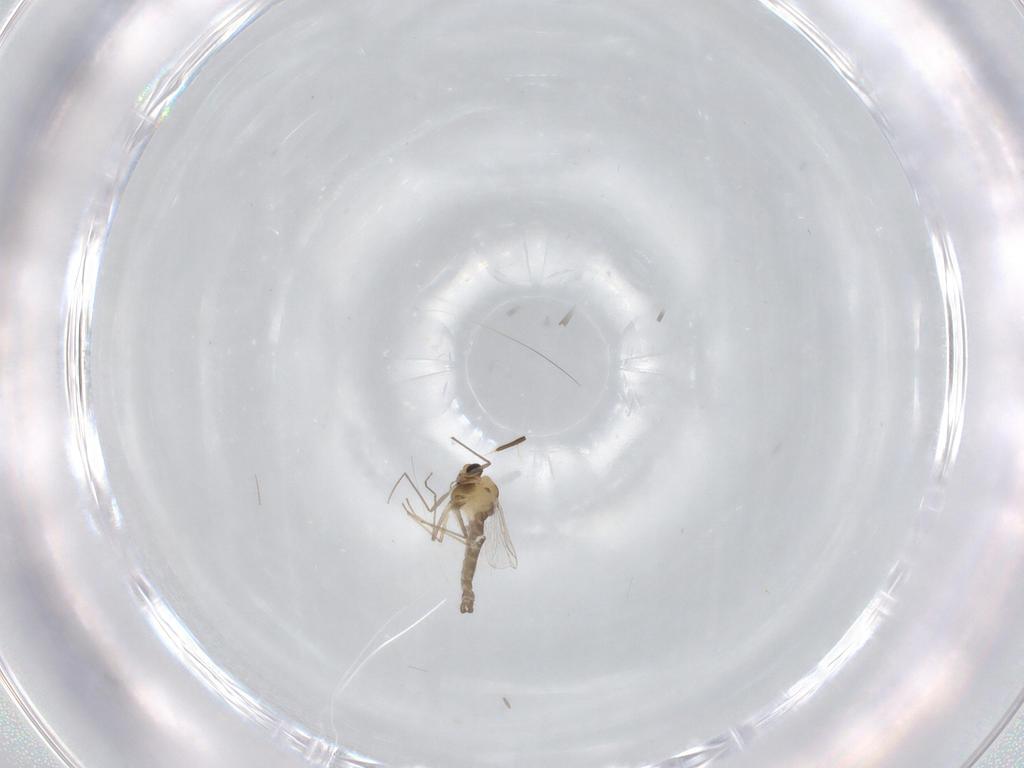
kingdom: Animalia
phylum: Arthropoda
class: Insecta
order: Diptera
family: Chironomidae
